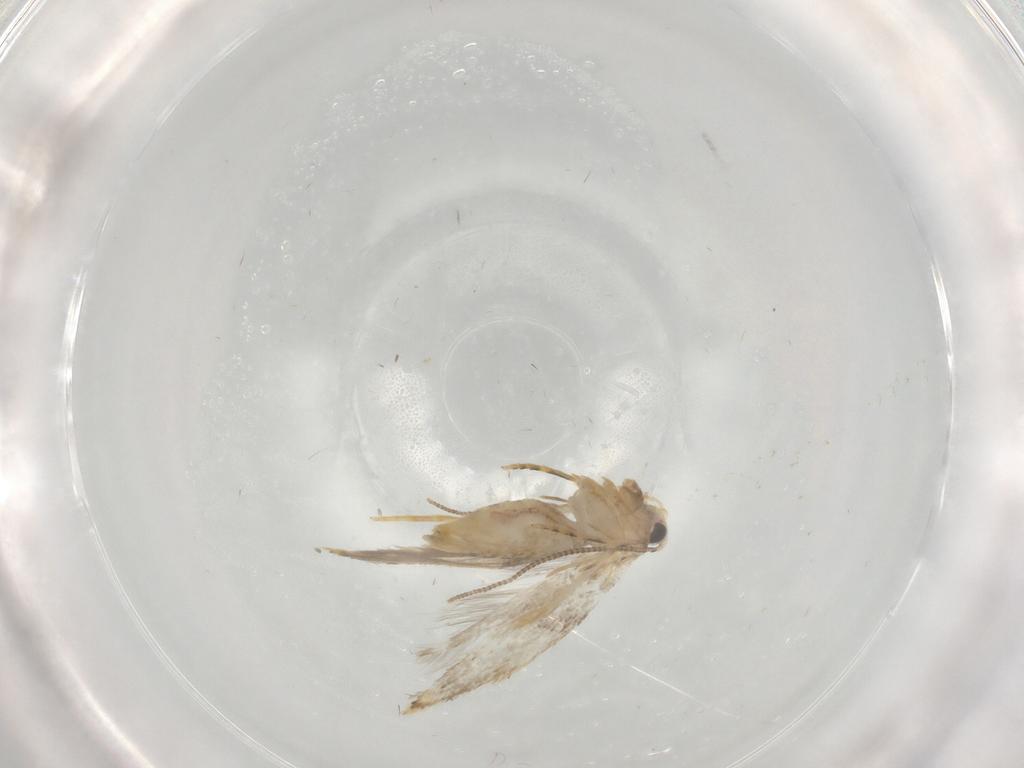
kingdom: Animalia
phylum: Arthropoda
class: Insecta
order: Lepidoptera
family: Tineidae
